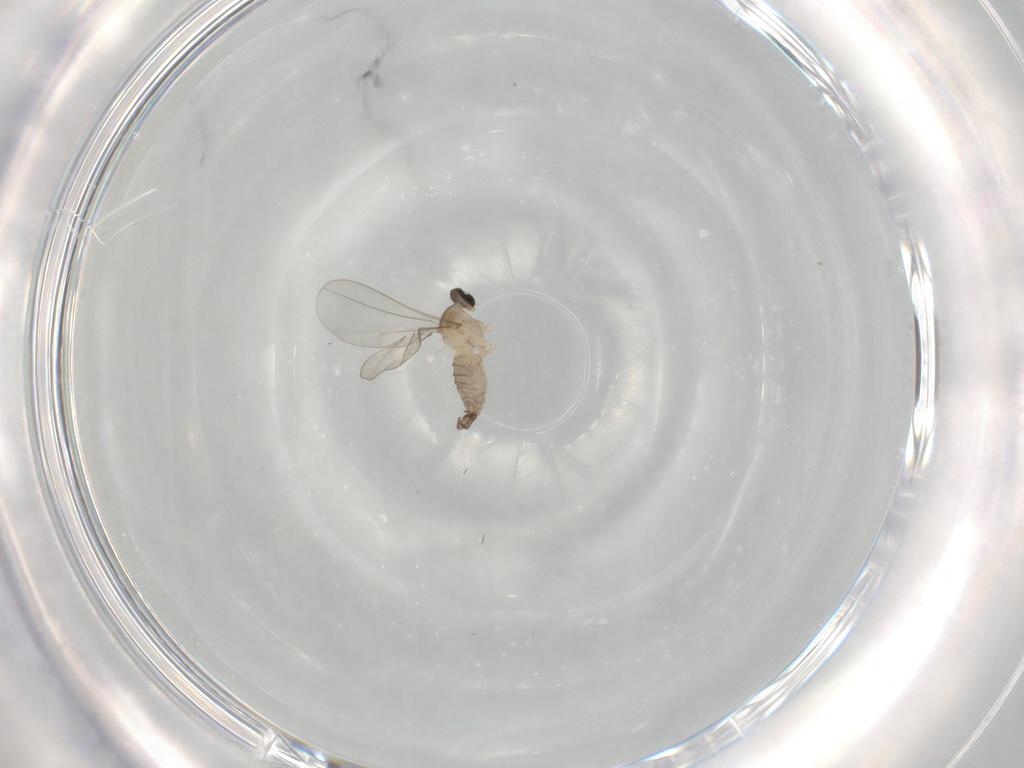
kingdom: Animalia
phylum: Arthropoda
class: Insecta
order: Diptera
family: Cecidomyiidae
